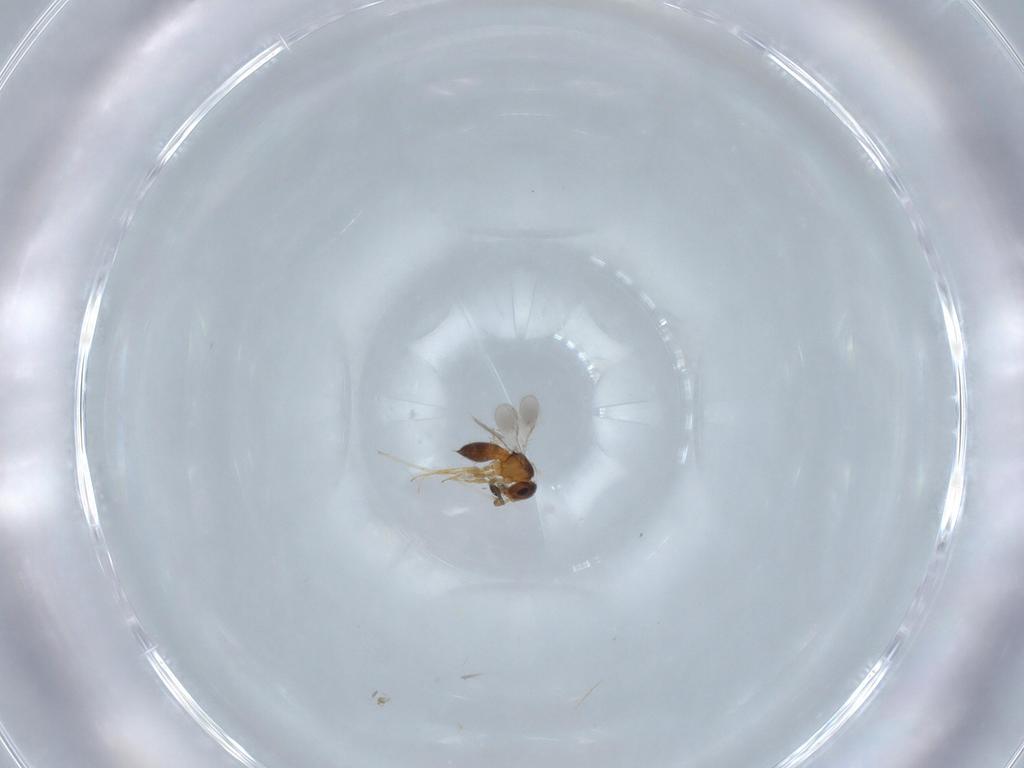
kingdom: Animalia
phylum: Arthropoda
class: Insecta
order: Hymenoptera
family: Scelionidae
